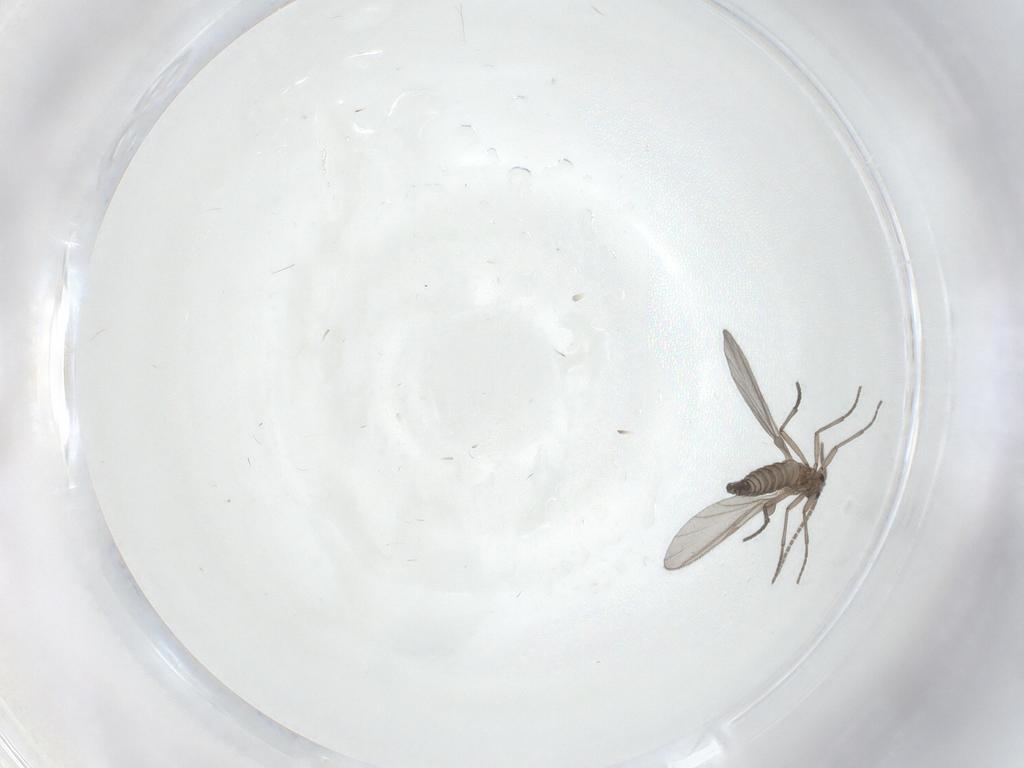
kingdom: Animalia
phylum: Arthropoda
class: Insecta
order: Diptera
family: Sciaridae
